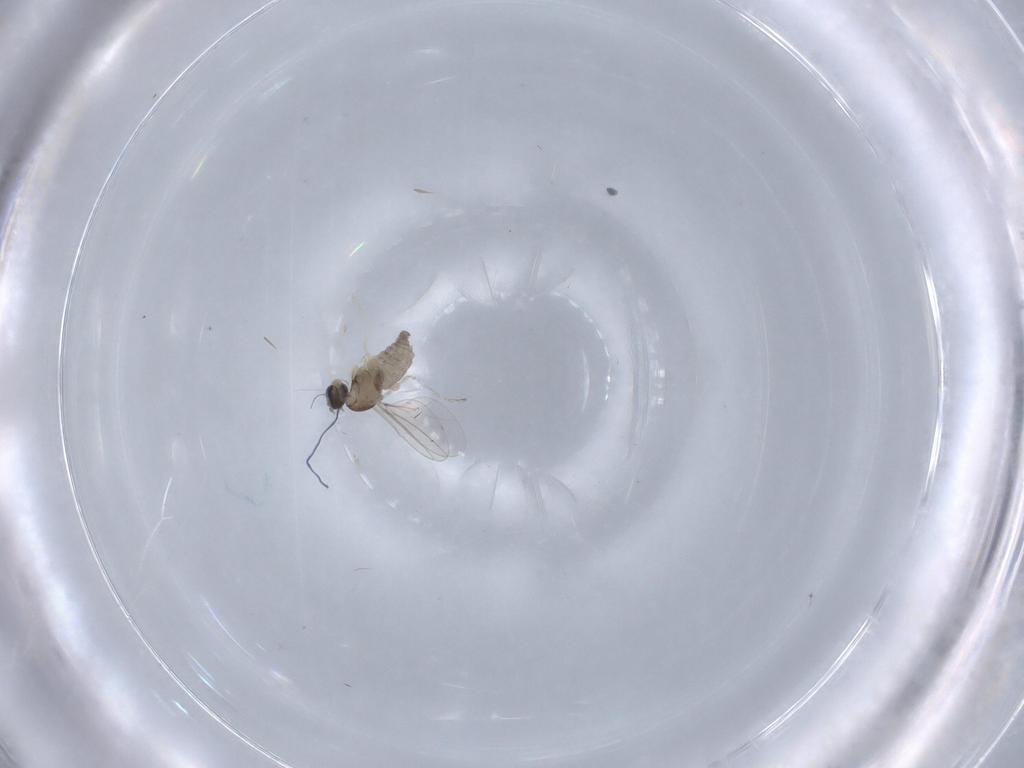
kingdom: Animalia
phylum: Arthropoda
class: Insecta
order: Diptera
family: Cecidomyiidae
